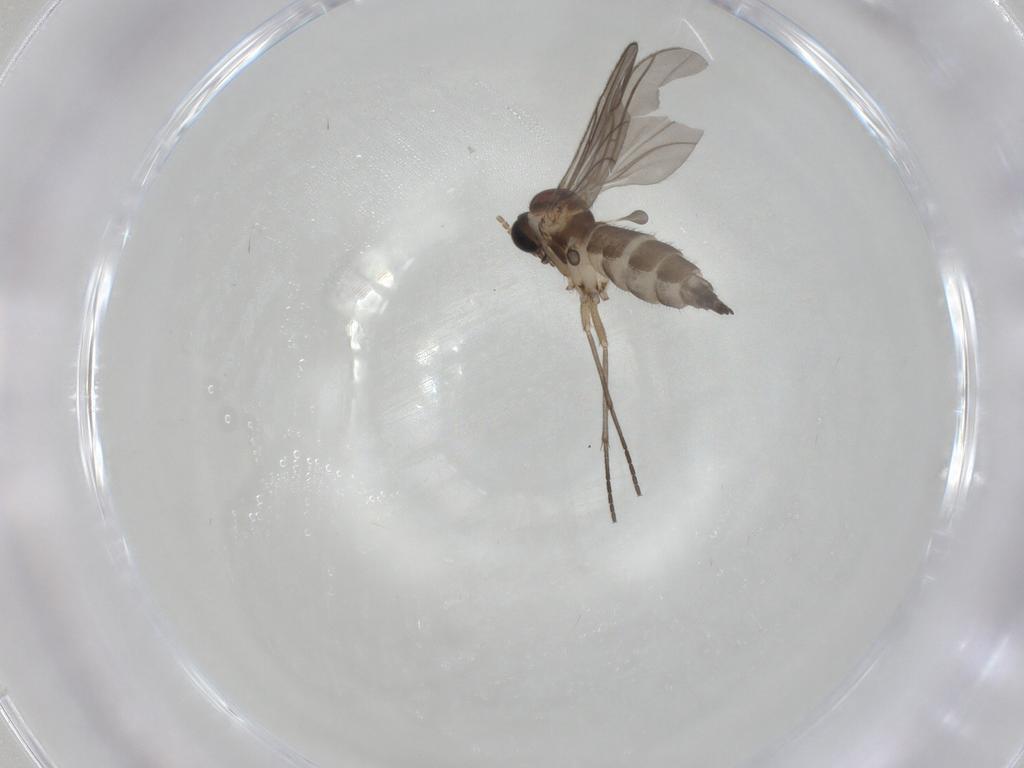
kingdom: Animalia
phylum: Arthropoda
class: Insecta
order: Diptera
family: Sciaridae
